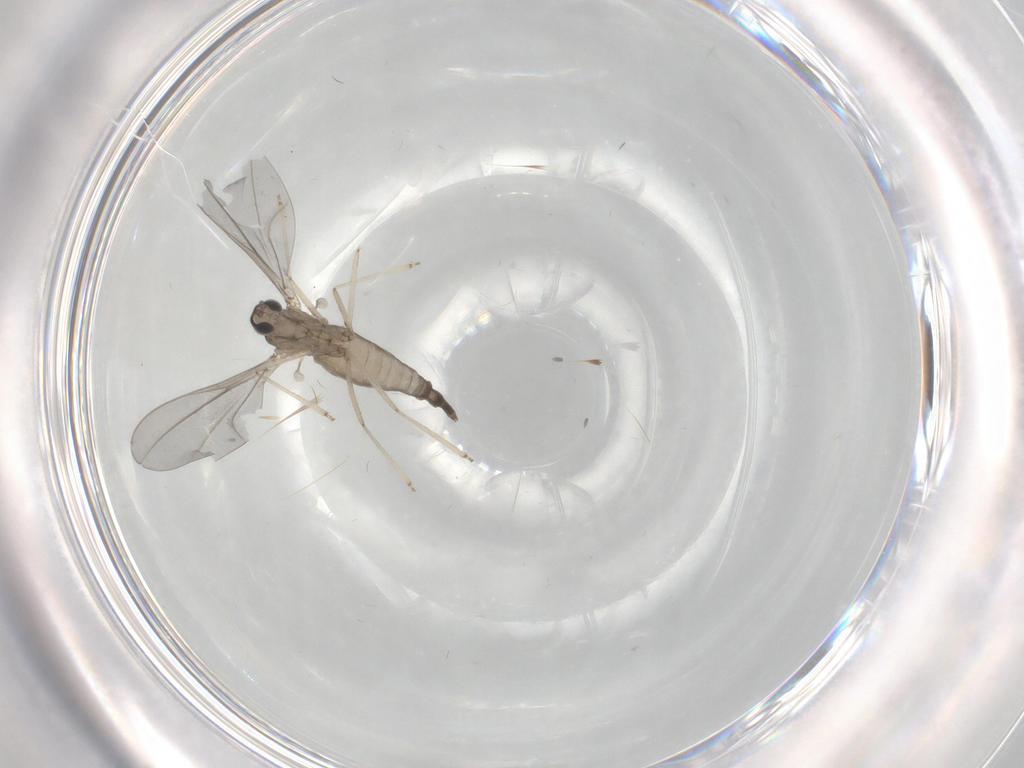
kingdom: Animalia
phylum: Arthropoda
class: Insecta
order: Diptera
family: Cecidomyiidae
